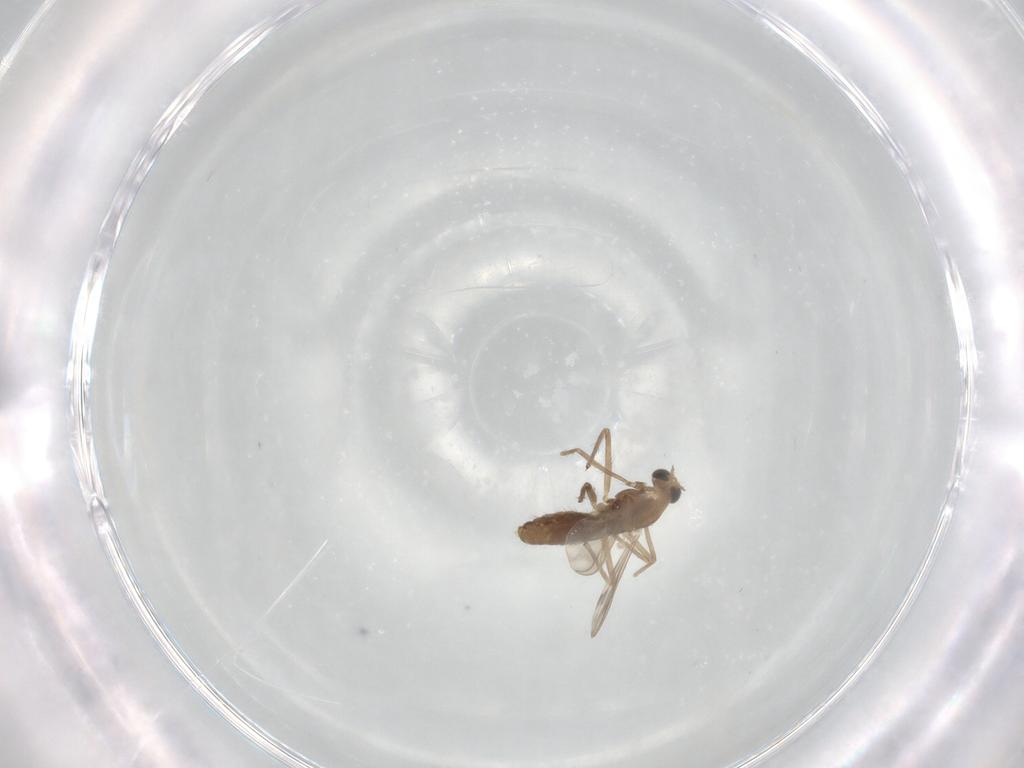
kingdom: Animalia
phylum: Arthropoda
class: Insecta
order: Diptera
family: Chironomidae
